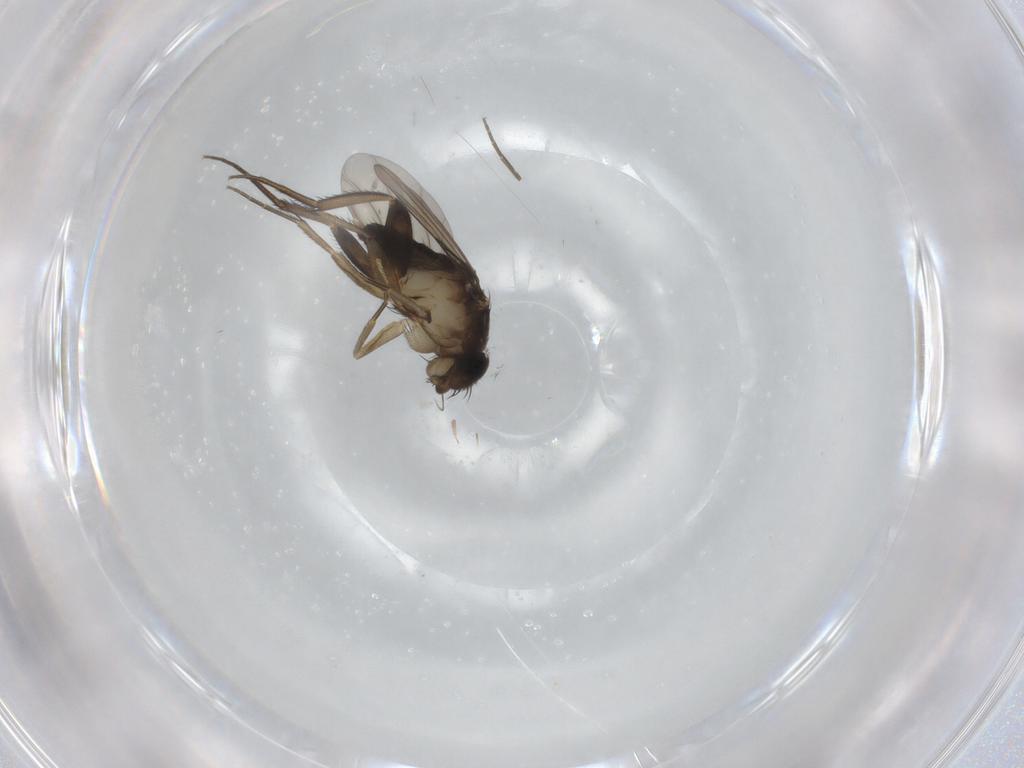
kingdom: Animalia
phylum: Arthropoda
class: Insecta
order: Diptera
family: Phoridae
